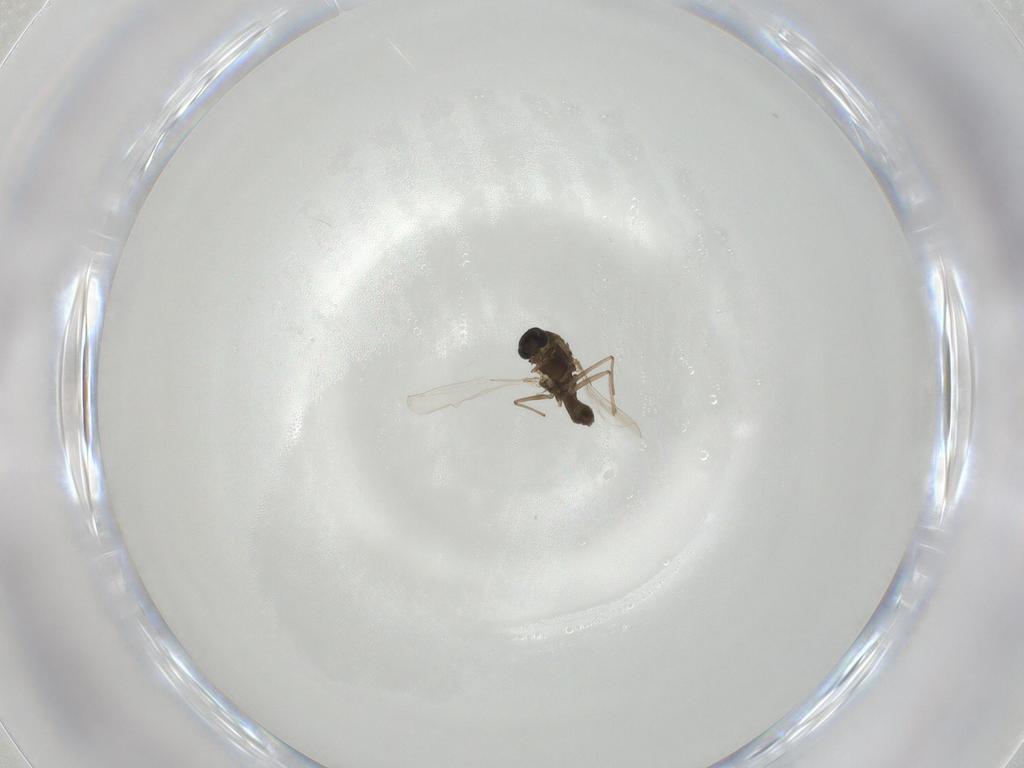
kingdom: Animalia
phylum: Arthropoda
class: Insecta
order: Diptera
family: Chironomidae
